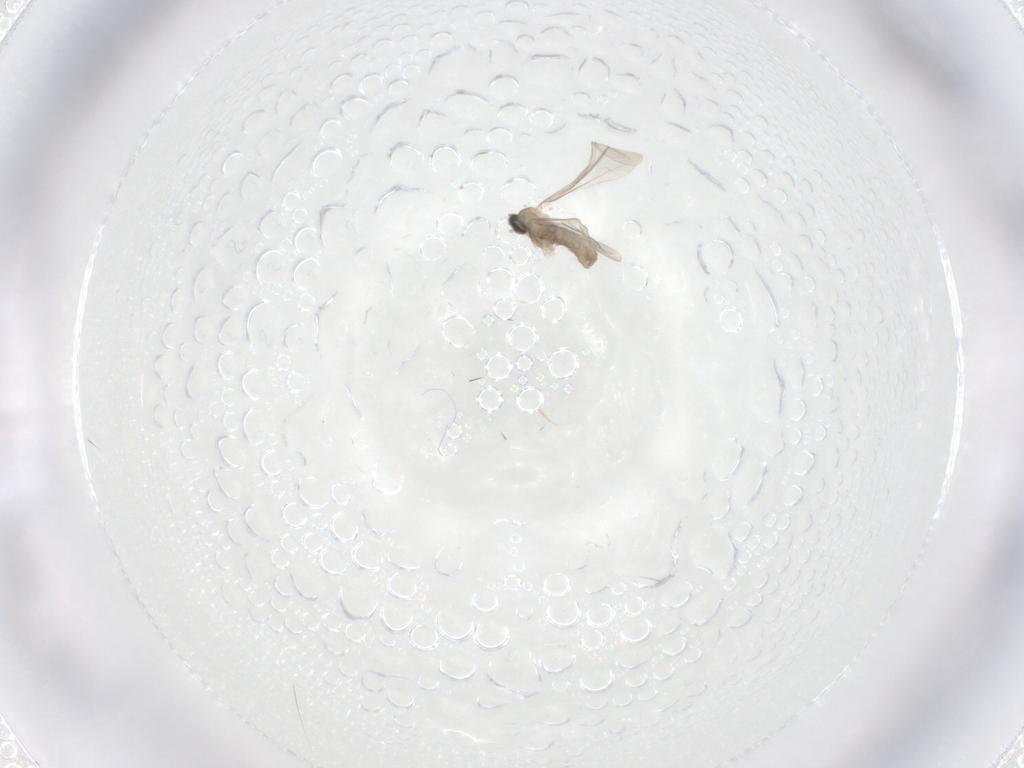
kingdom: Animalia
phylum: Arthropoda
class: Insecta
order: Diptera
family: Cecidomyiidae
